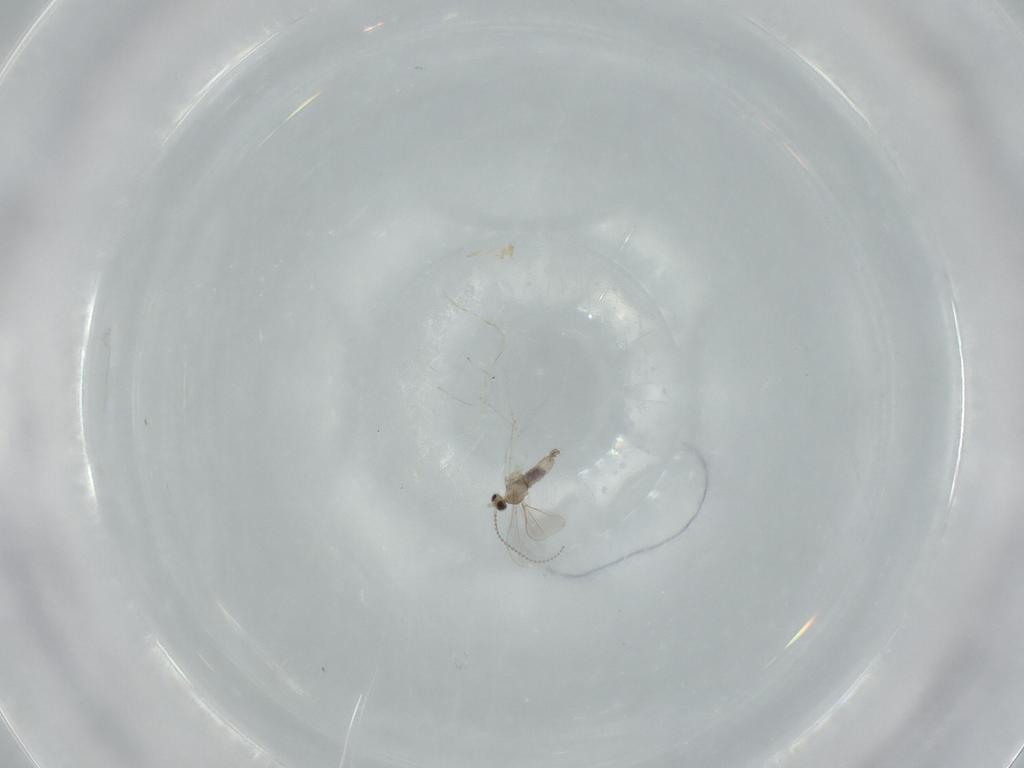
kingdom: Animalia
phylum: Arthropoda
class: Insecta
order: Diptera
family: Cecidomyiidae
